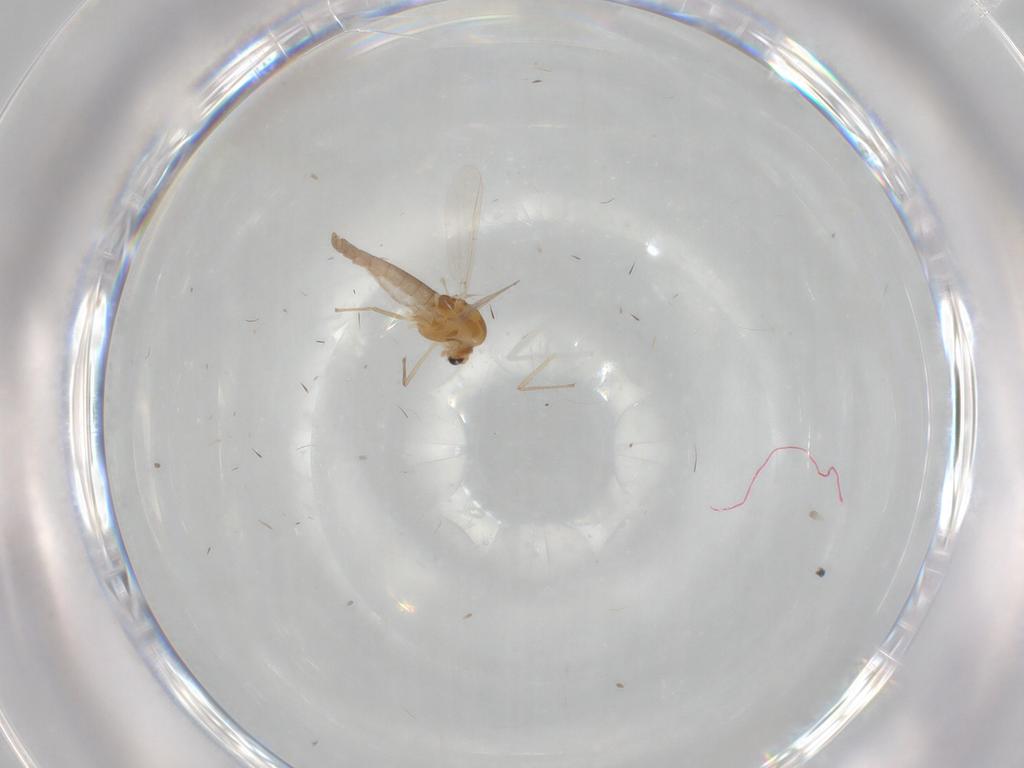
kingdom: Animalia
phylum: Arthropoda
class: Insecta
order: Diptera
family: Chironomidae
